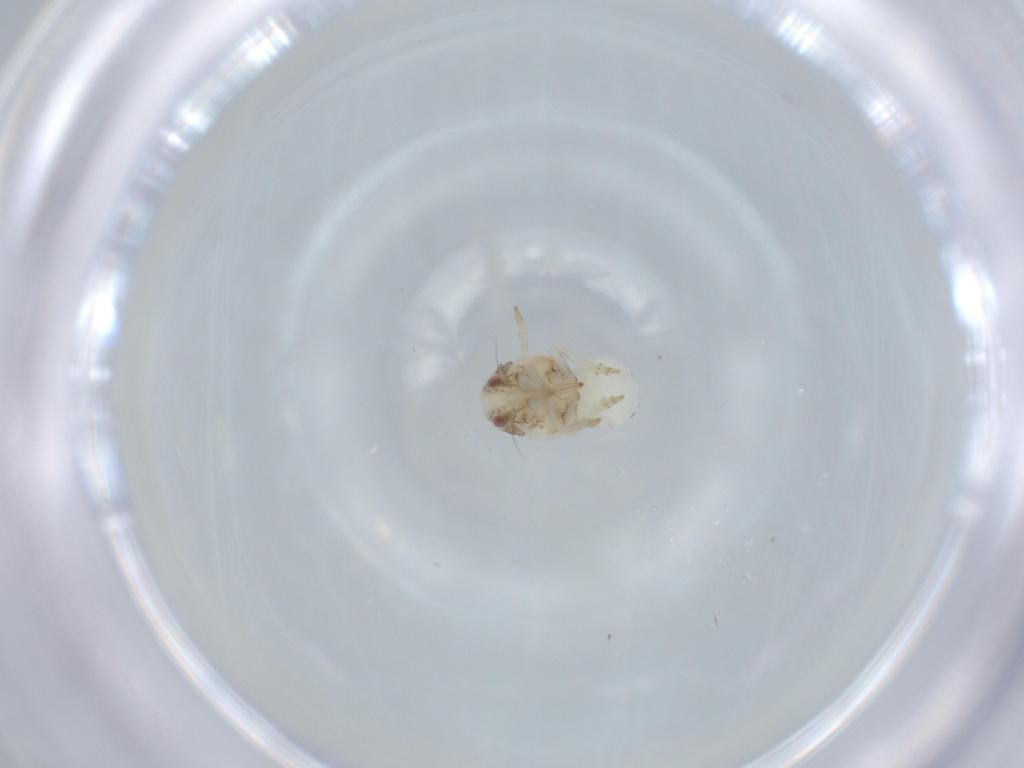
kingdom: Animalia
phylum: Arthropoda
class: Insecta
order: Hemiptera
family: Acanaloniidae
